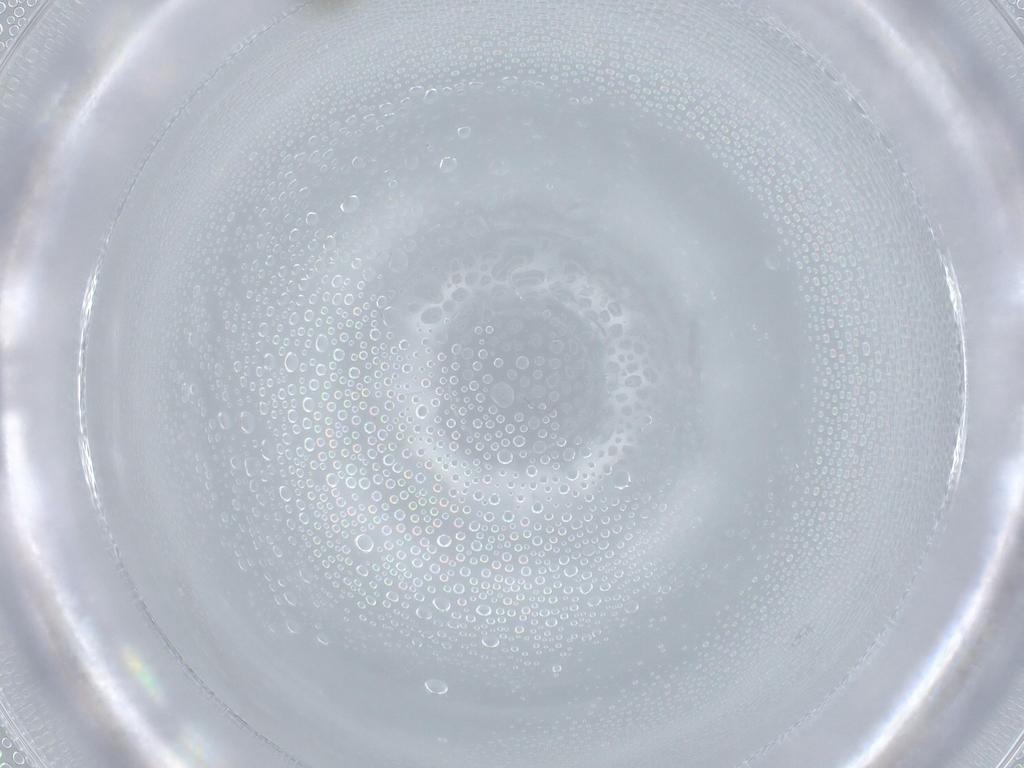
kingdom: Animalia
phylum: Arthropoda
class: Insecta
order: Diptera
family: Cecidomyiidae
